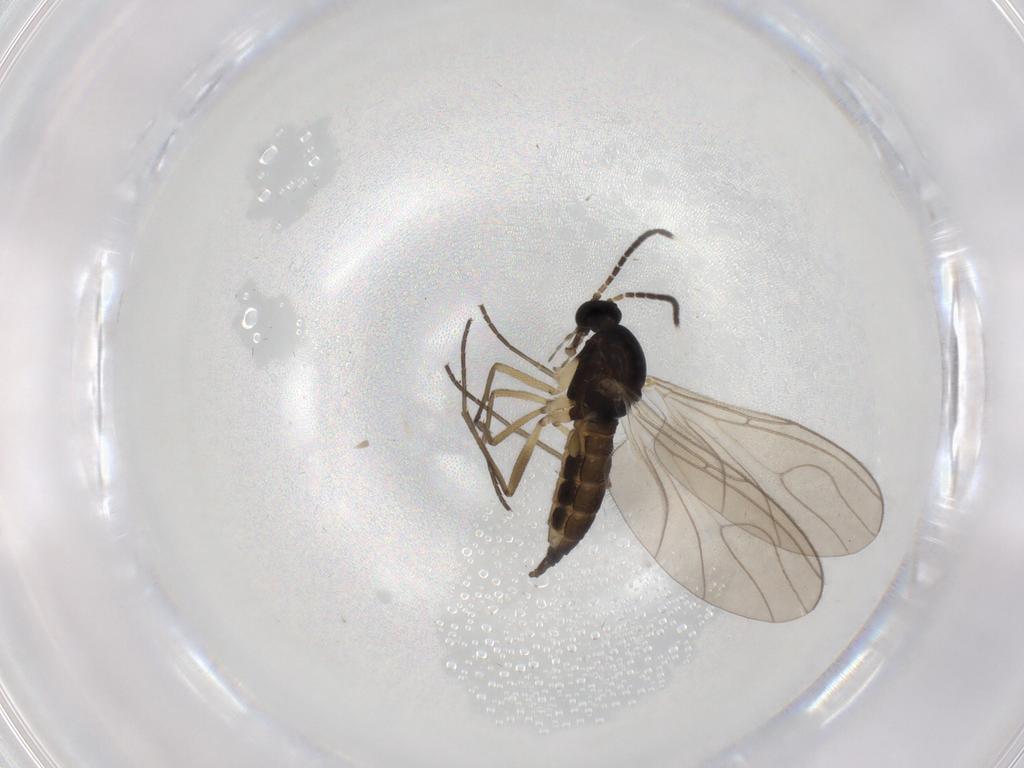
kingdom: Animalia
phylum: Arthropoda
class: Insecta
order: Diptera
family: Sciaridae
